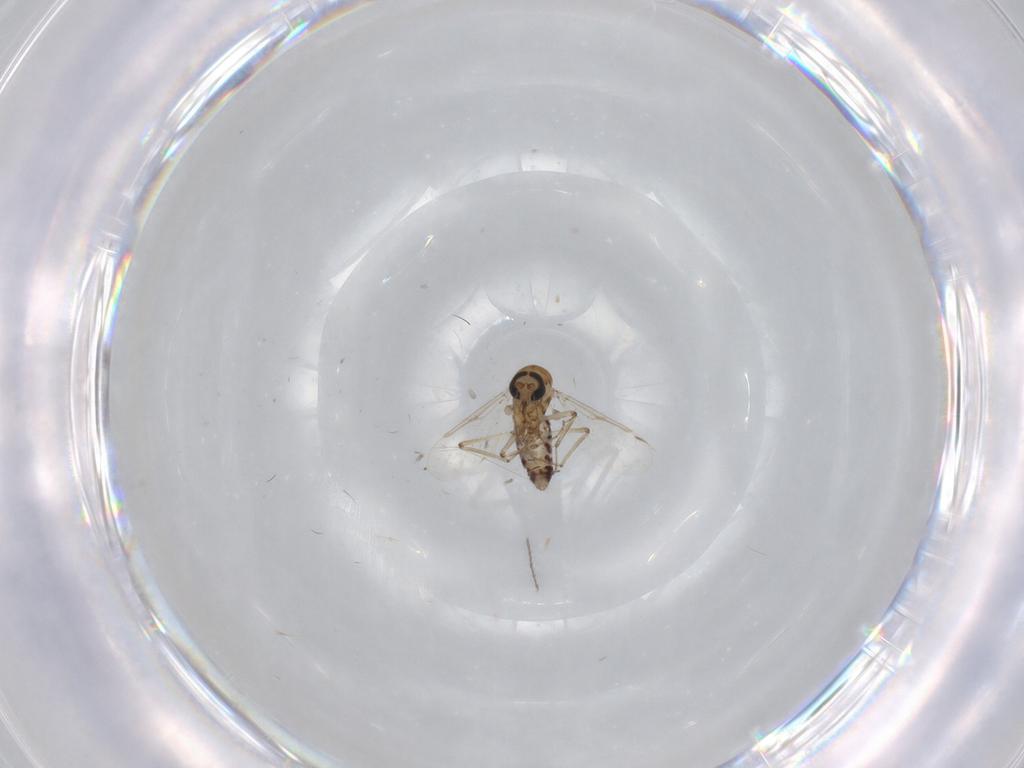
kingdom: Animalia
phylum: Arthropoda
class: Insecta
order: Diptera
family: Ceratopogonidae
